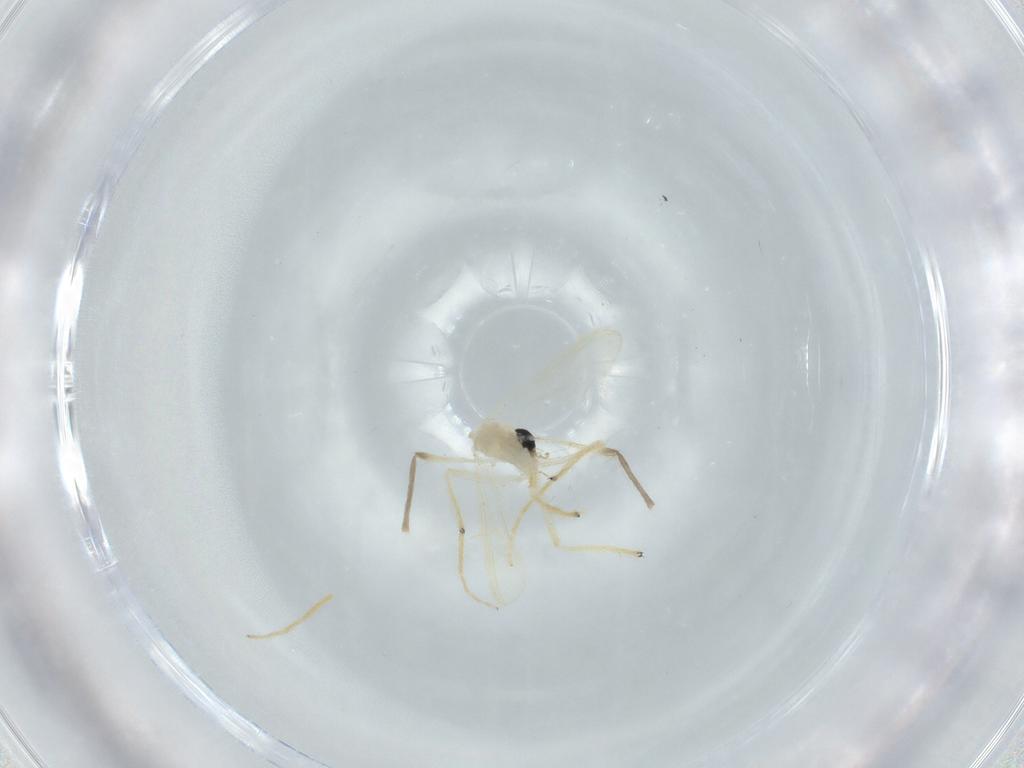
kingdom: Animalia
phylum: Arthropoda
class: Insecta
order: Diptera
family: Chironomidae
